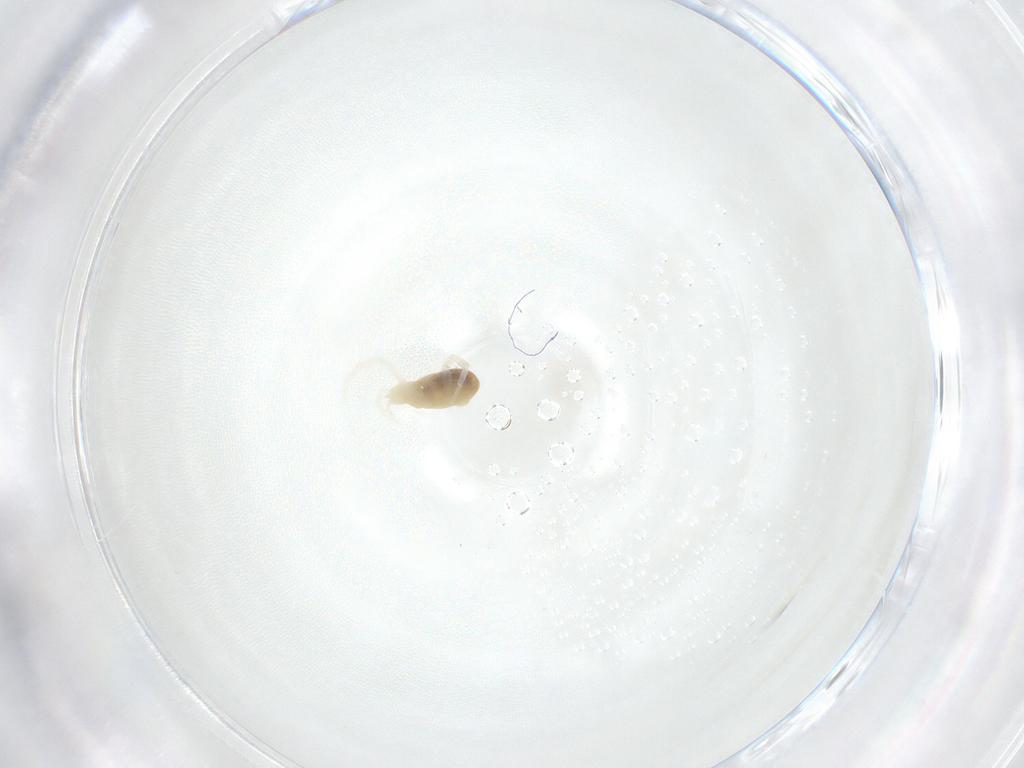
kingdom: Animalia
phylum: Arthropoda
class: Arachnida
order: Trombidiformes
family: Rhagidiidae
